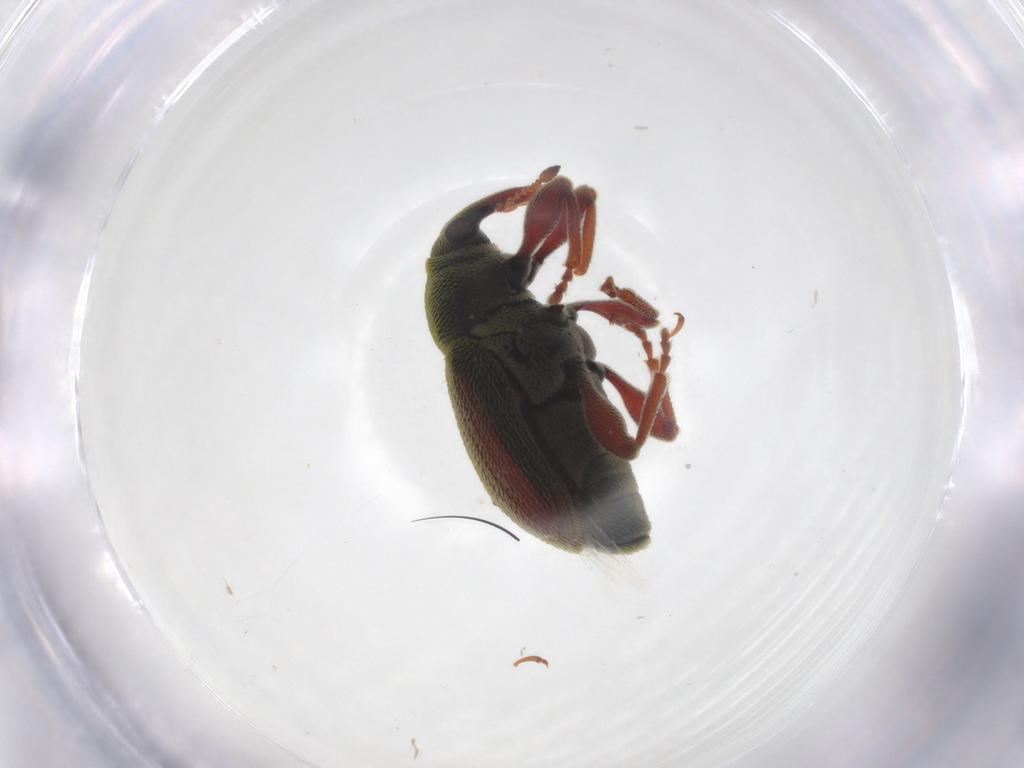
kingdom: Animalia
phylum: Arthropoda
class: Insecta
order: Coleoptera
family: Curculionidae
